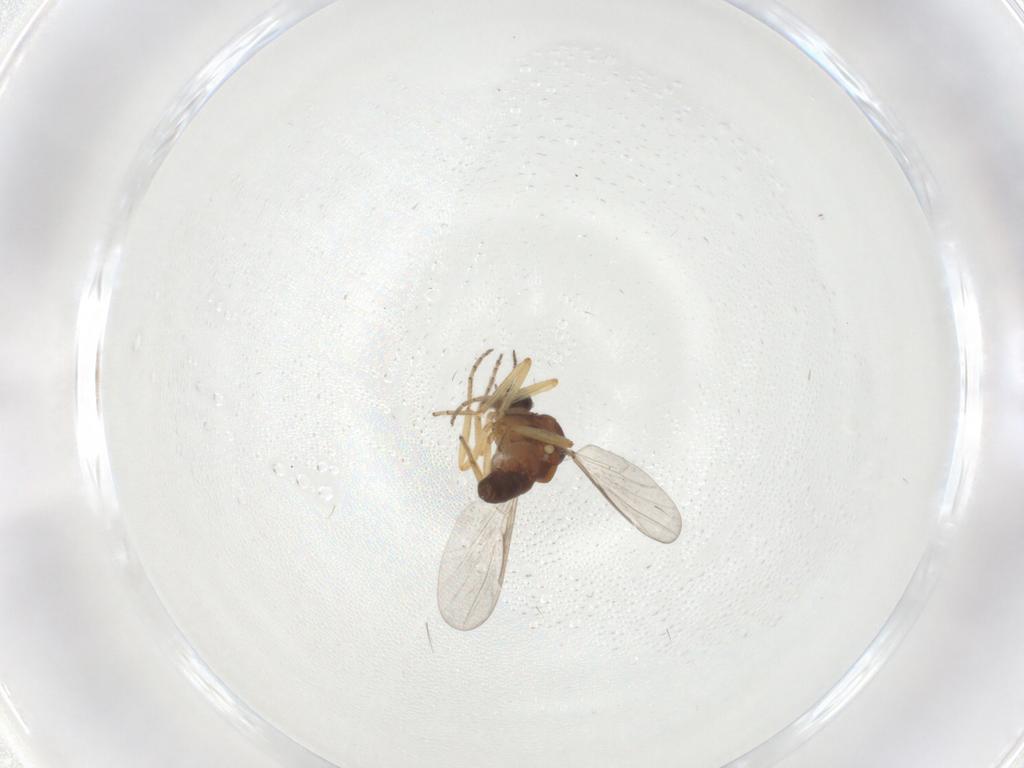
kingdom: Animalia
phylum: Arthropoda
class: Insecta
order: Diptera
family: Ceratopogonidae
